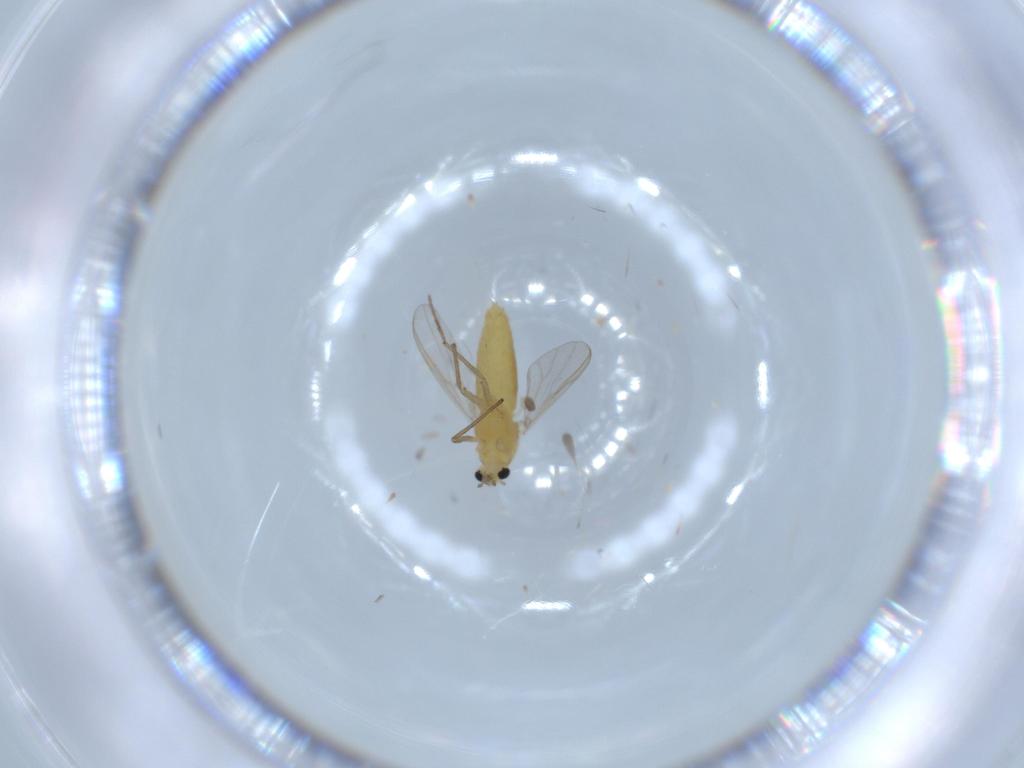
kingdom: Animalia
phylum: Arthropoda
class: Insecta
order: Diptera
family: Chironomidae
